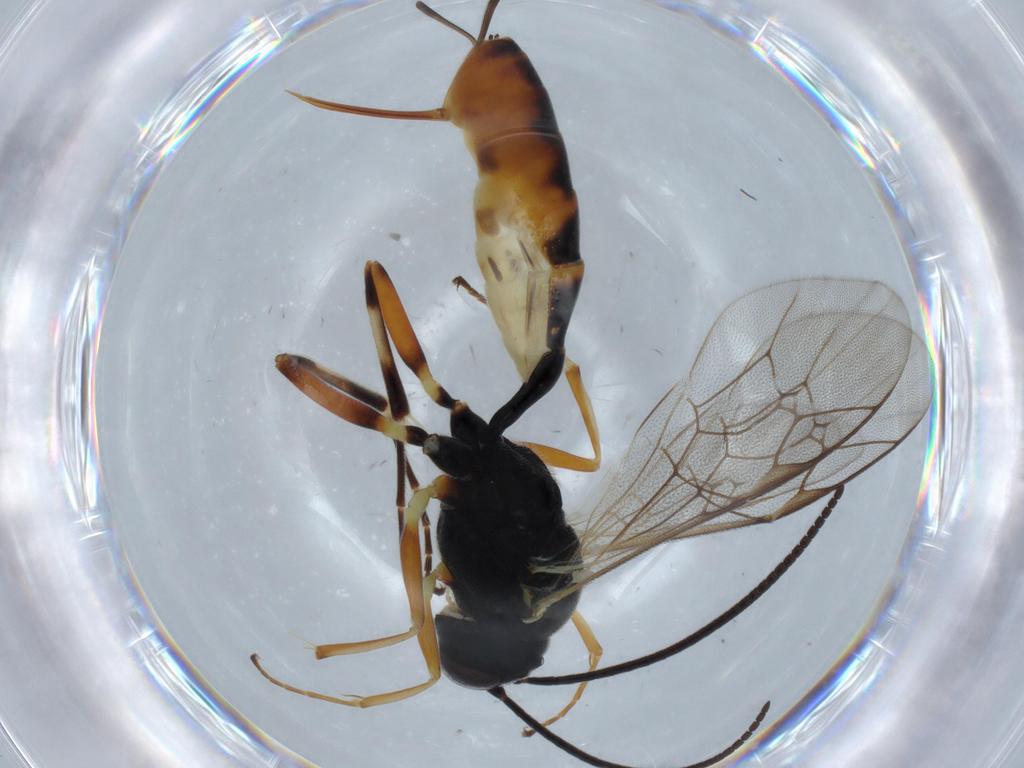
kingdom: Animalia
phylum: Arthropoda
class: Insecta
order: Hymenoptera
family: Ichneumonidae
